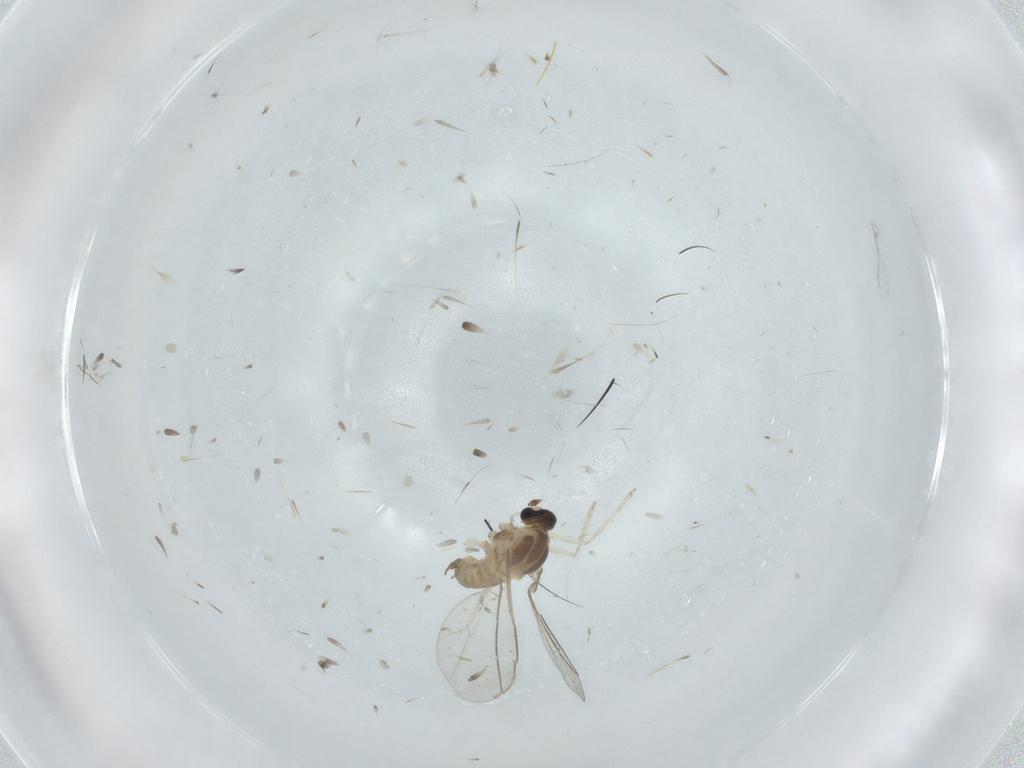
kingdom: Animalia
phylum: Arthropoda
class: Insecta
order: Diptera
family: Cecidomyiidae
